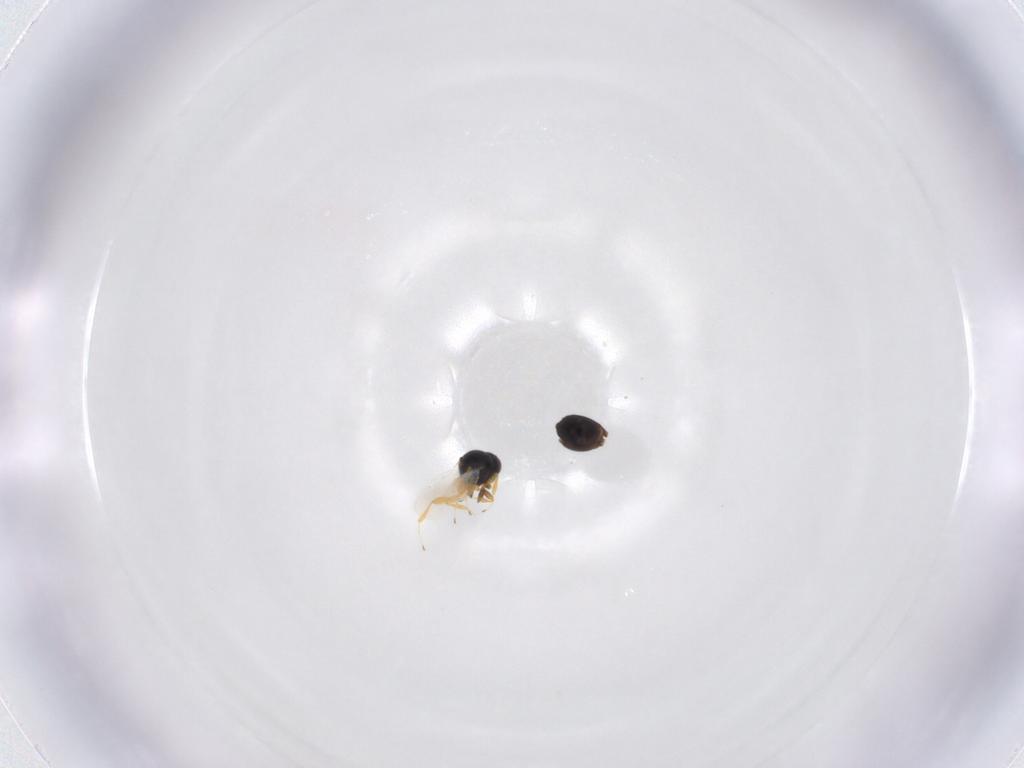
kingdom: Animalia
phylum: Arthropoda
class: Insecta
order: Hymenoptera
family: Platygastridae
